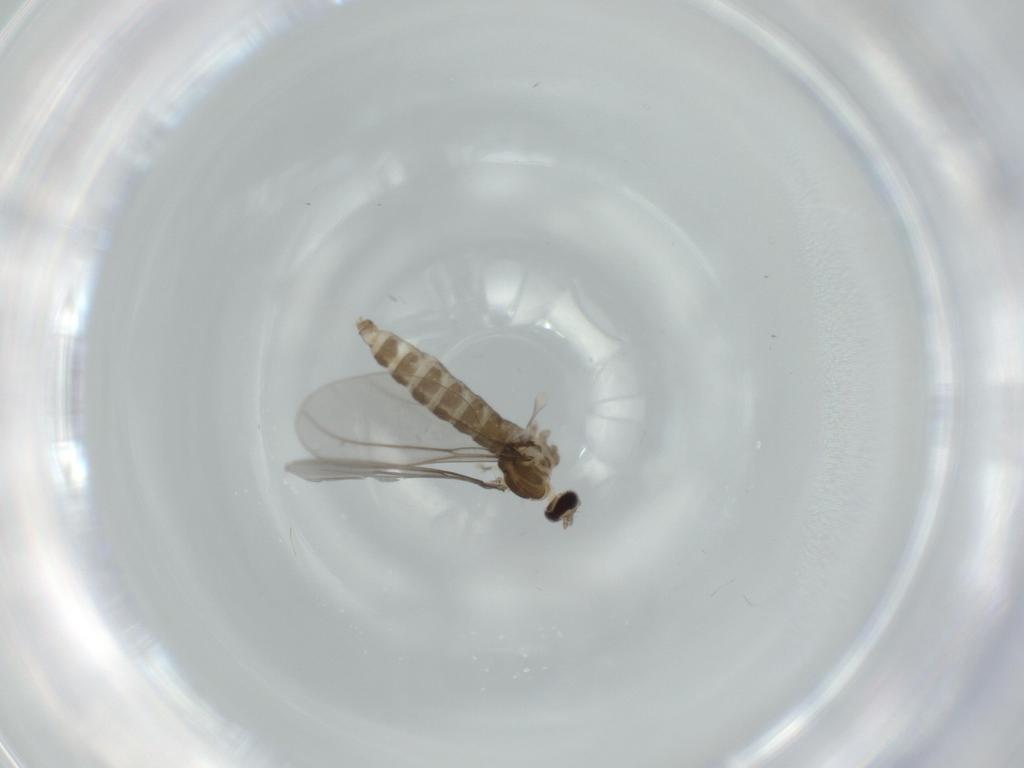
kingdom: Animalia
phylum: Arthropoda
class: Insecta
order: Diptera
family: Cecidomyiidae
